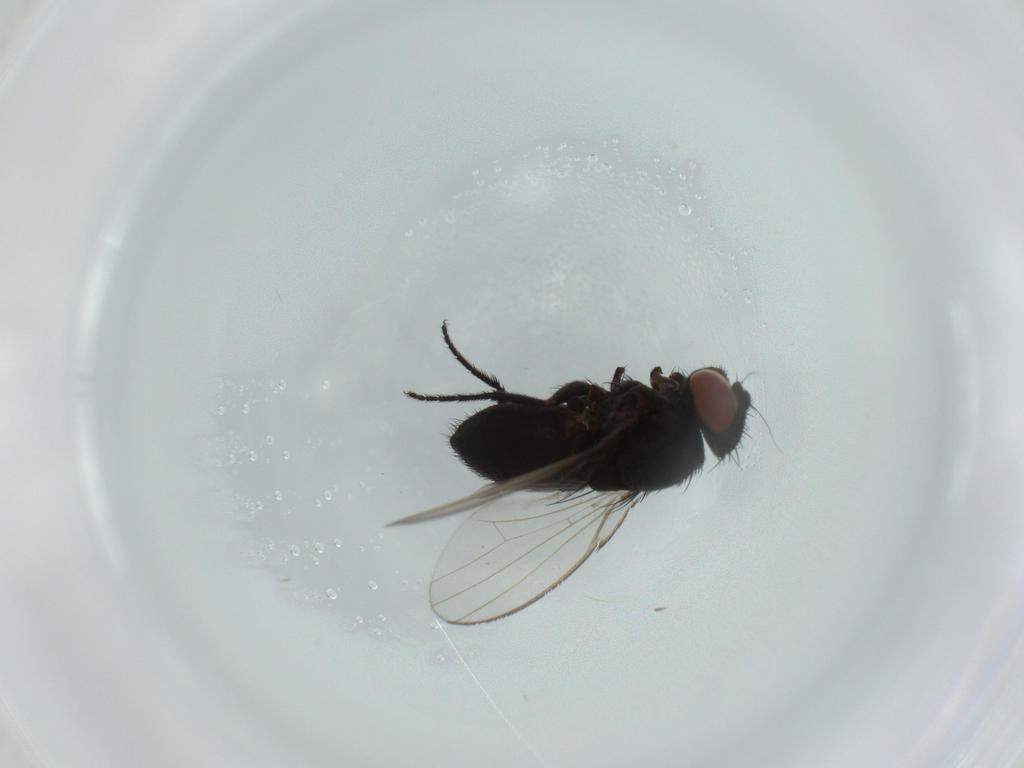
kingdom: Animalia
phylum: Arthropoda
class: Insecta
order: Diptera
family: Milichiidae
